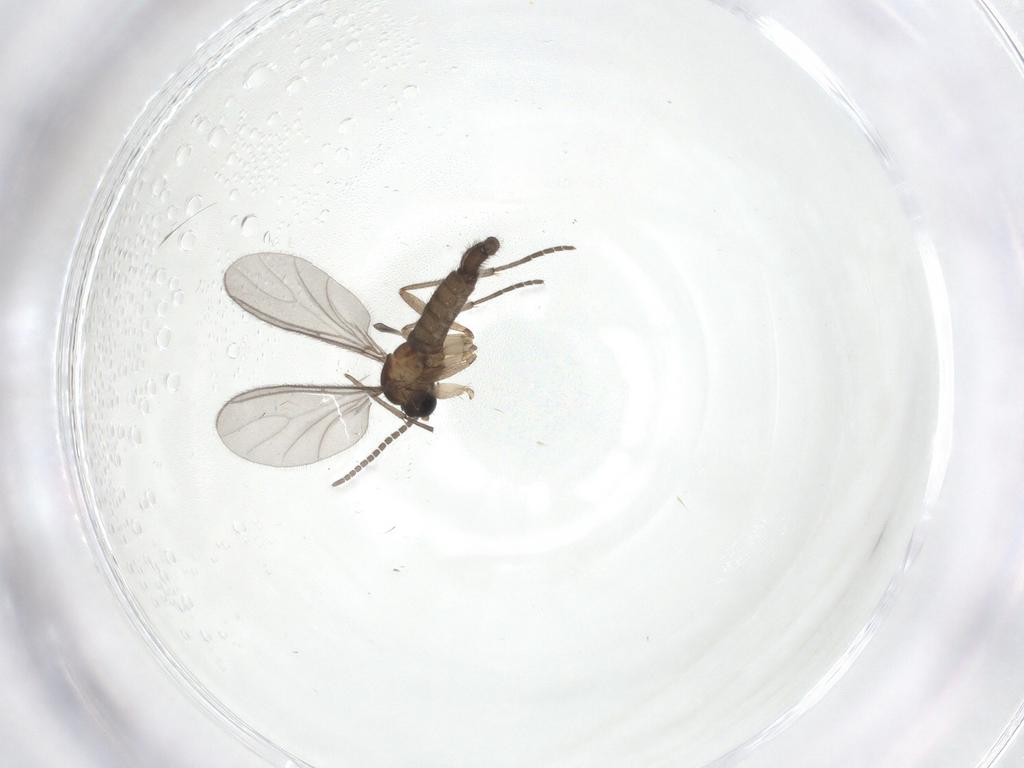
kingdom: Animalia
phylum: Arthropoda
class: Insecta
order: Diptera
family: Sciaridae
